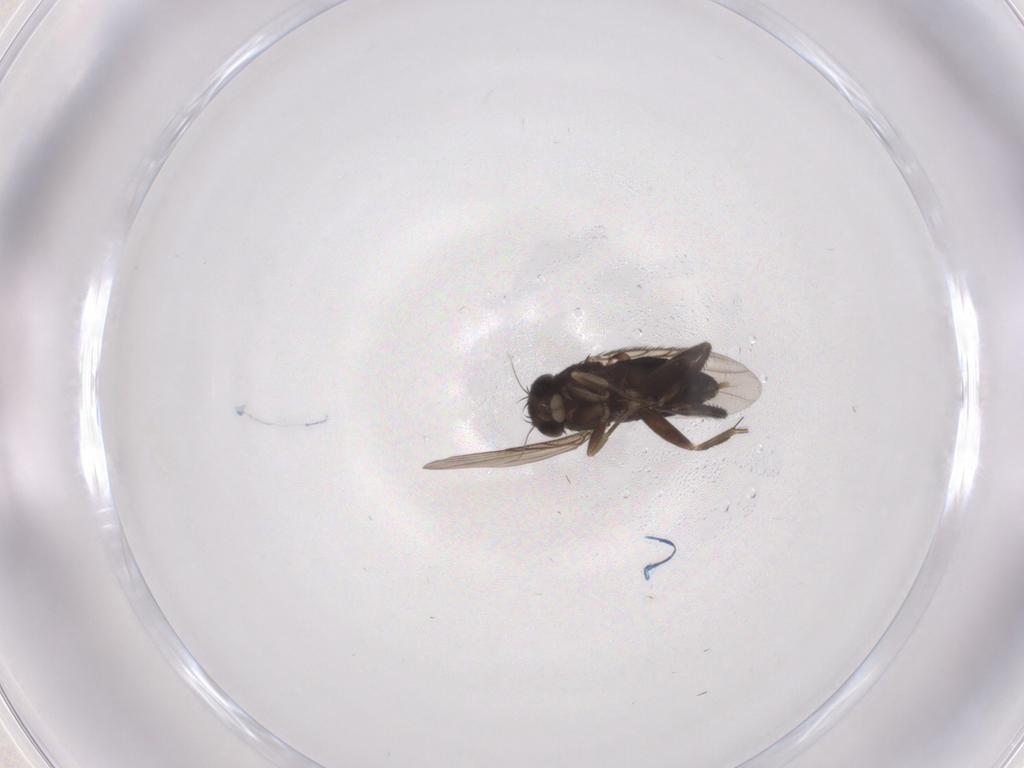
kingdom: Animalia
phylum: Arthropoda
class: Insecta
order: Diptera
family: Phoridae
